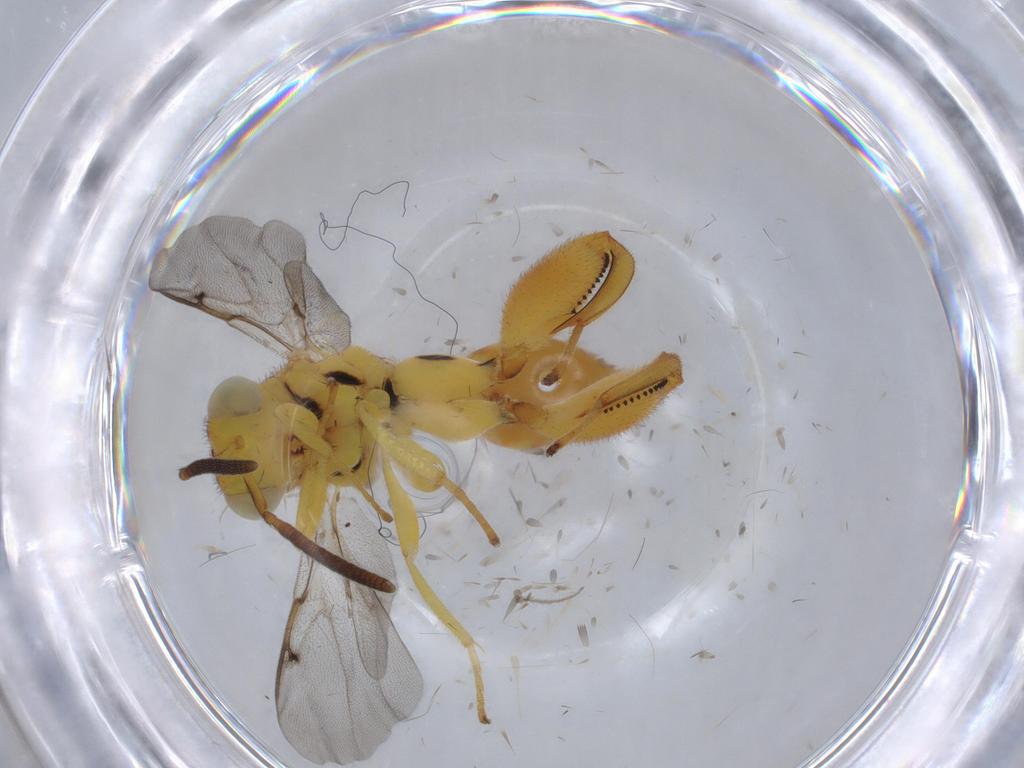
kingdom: Animalia
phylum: Arthropoda
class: Insecta
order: Hymenoptera
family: Chalcididae
